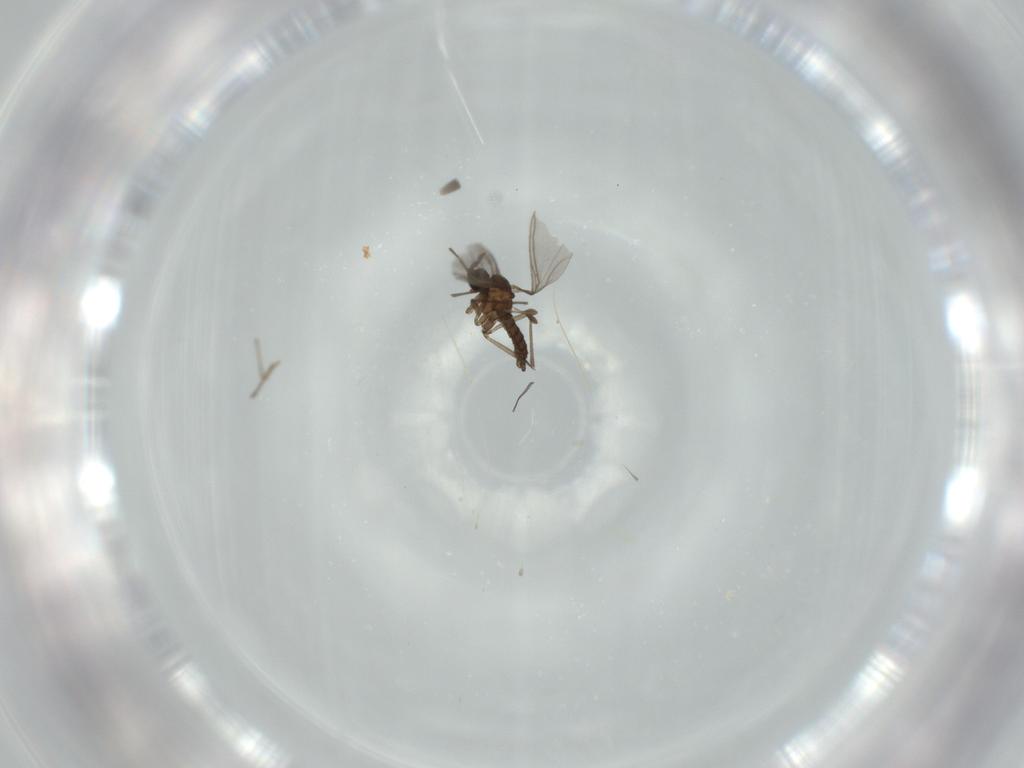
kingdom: Animalia
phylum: Arthropoda
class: Insecta
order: Diptera
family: Cecidomyiidae
